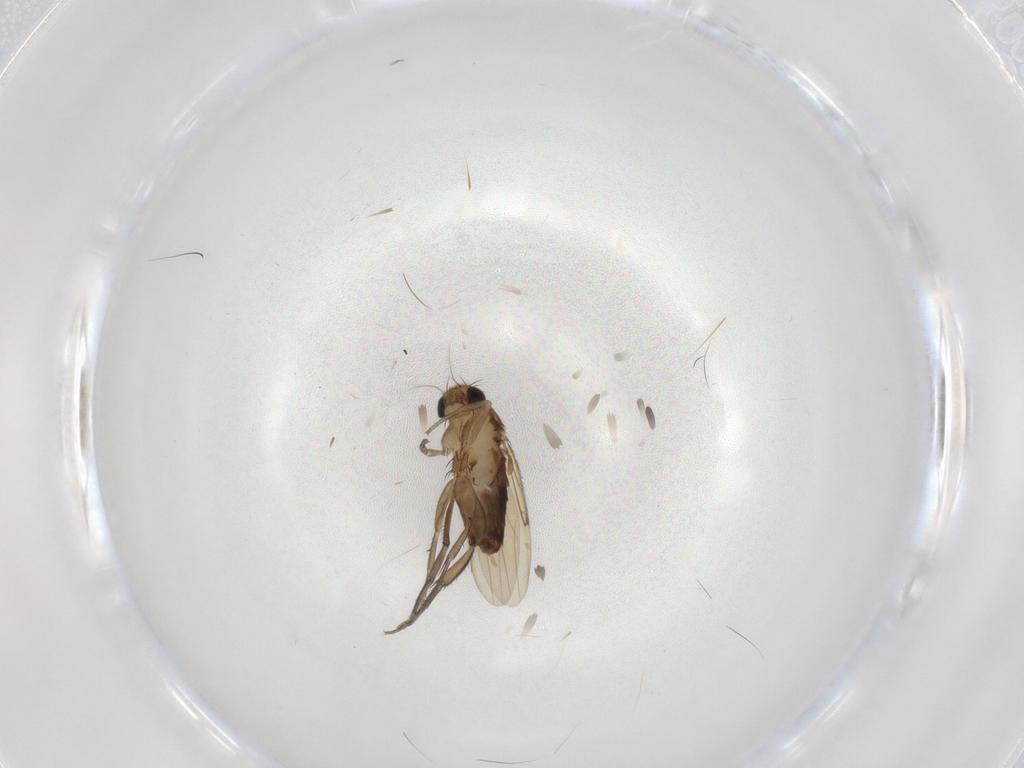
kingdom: Animalia
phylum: Arthropoda
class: Insecta
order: Diptera
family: Phoridae
